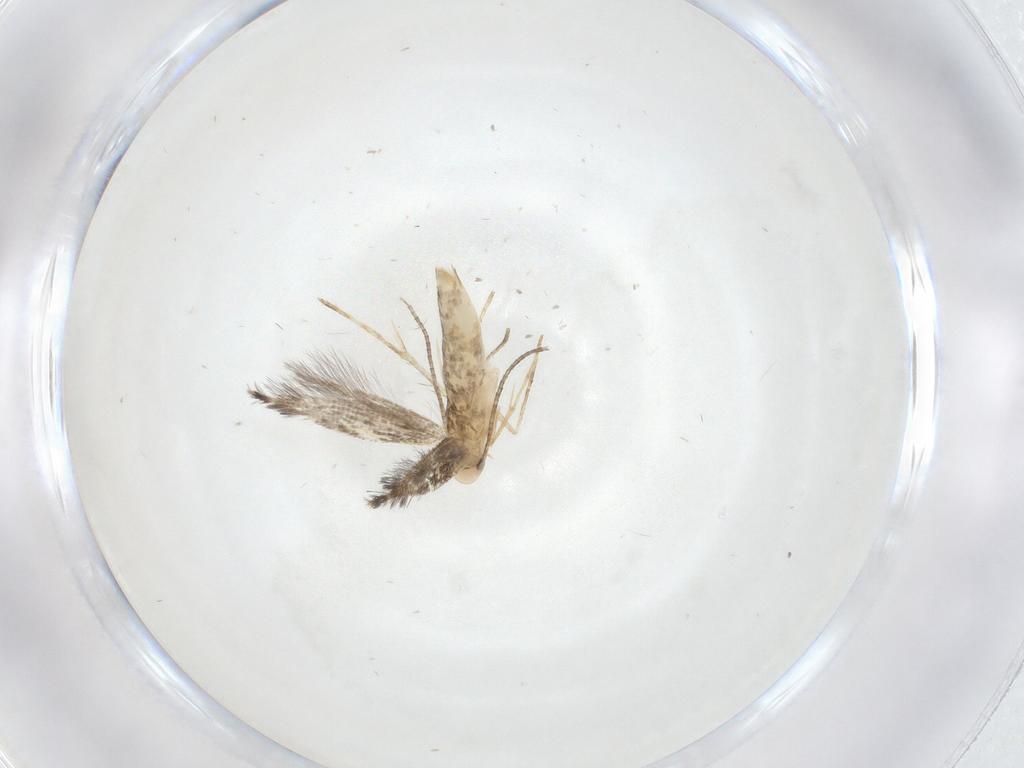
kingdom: Animalia
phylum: Arthropoda
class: Insecta
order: Lepidoptera
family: Gracillariidae
